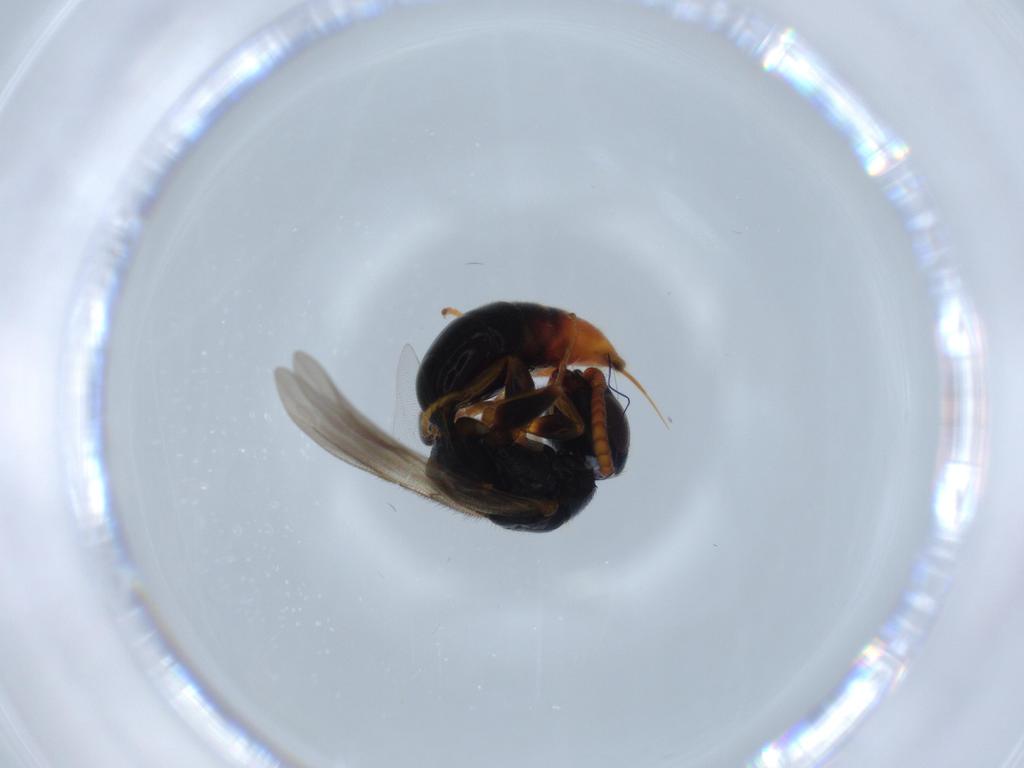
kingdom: Animalia
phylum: Arthropoda
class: Insecta
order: Hymenoptera
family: Bethylidae
